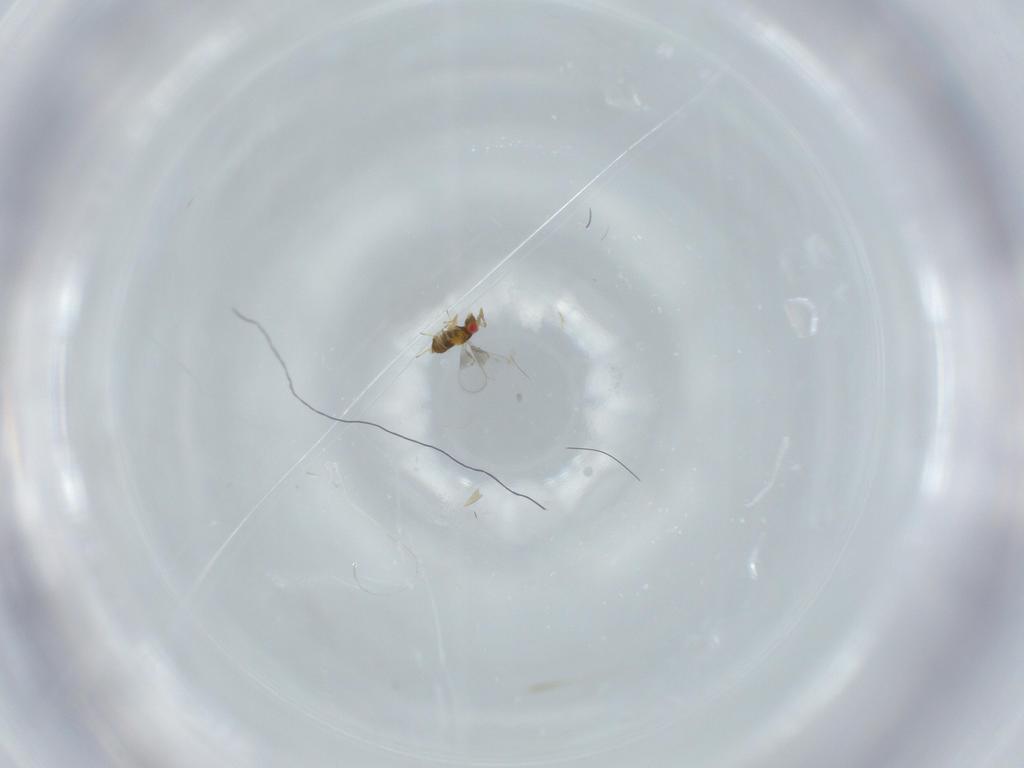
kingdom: Animalia
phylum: Arthropoda
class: Insecta
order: Hymenoptera
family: Trichogrammatidae
